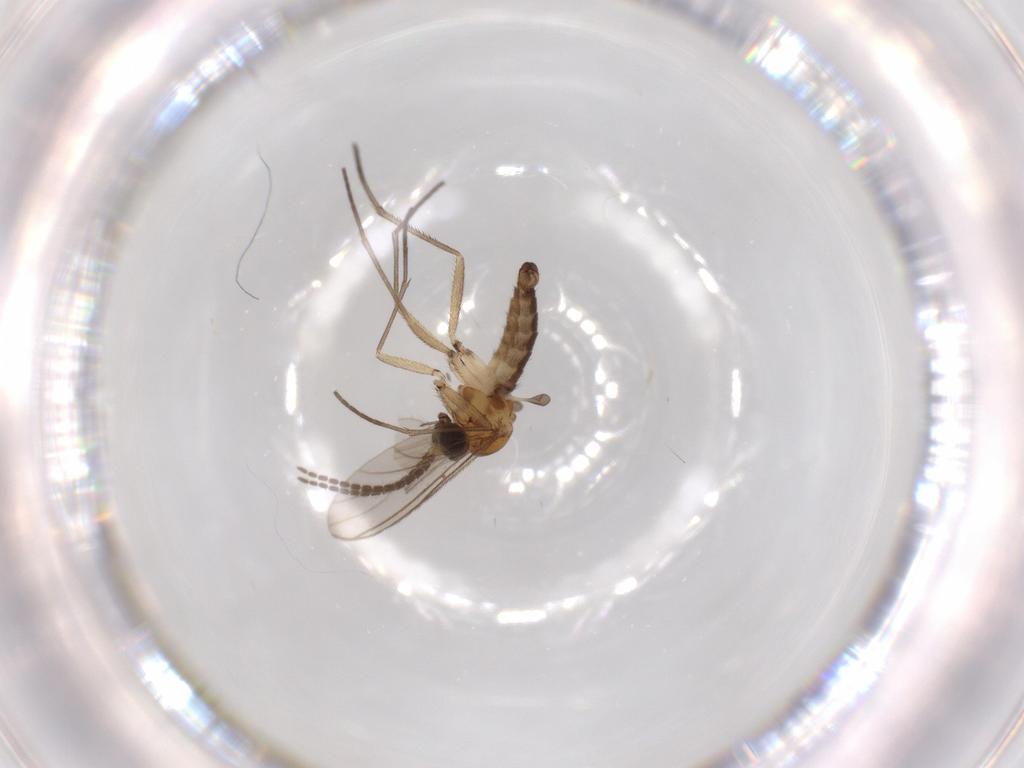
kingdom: Animalia
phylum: Arthropoda
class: Insecta
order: Diptera
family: Sciaridae
